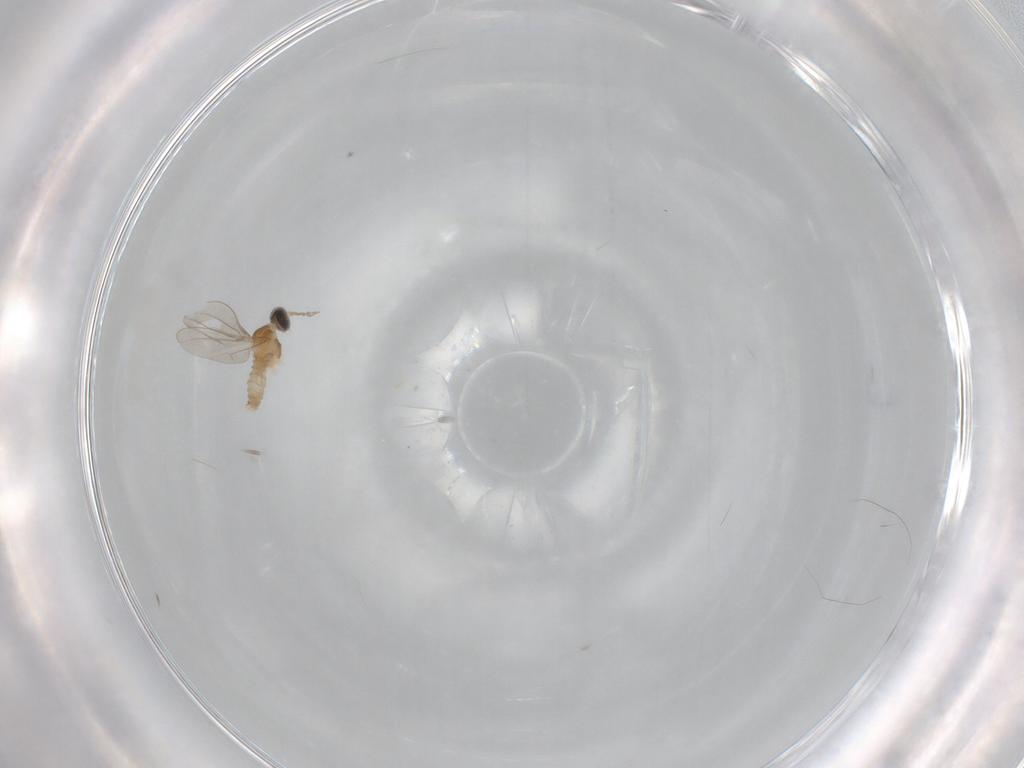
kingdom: Animalia
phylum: Arthropoda
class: Insecta
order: Diptera
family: Cecidomyiidae
